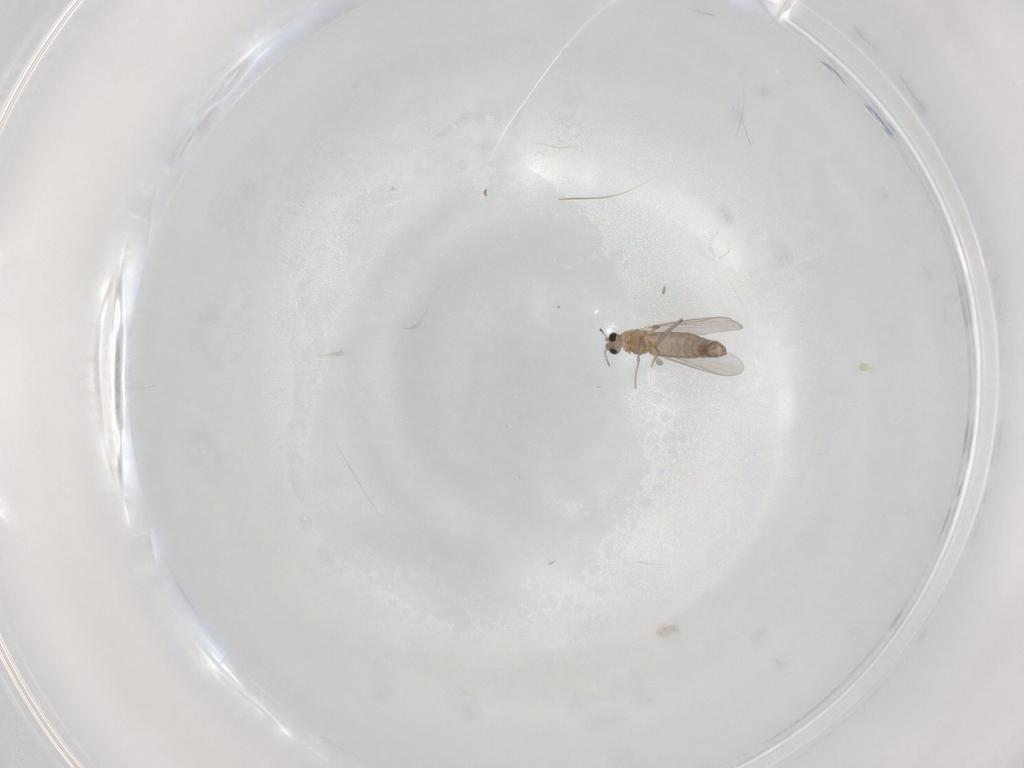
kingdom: Animalia
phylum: Arthropoda
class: Insecta
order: Diptera
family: Chironomidae
